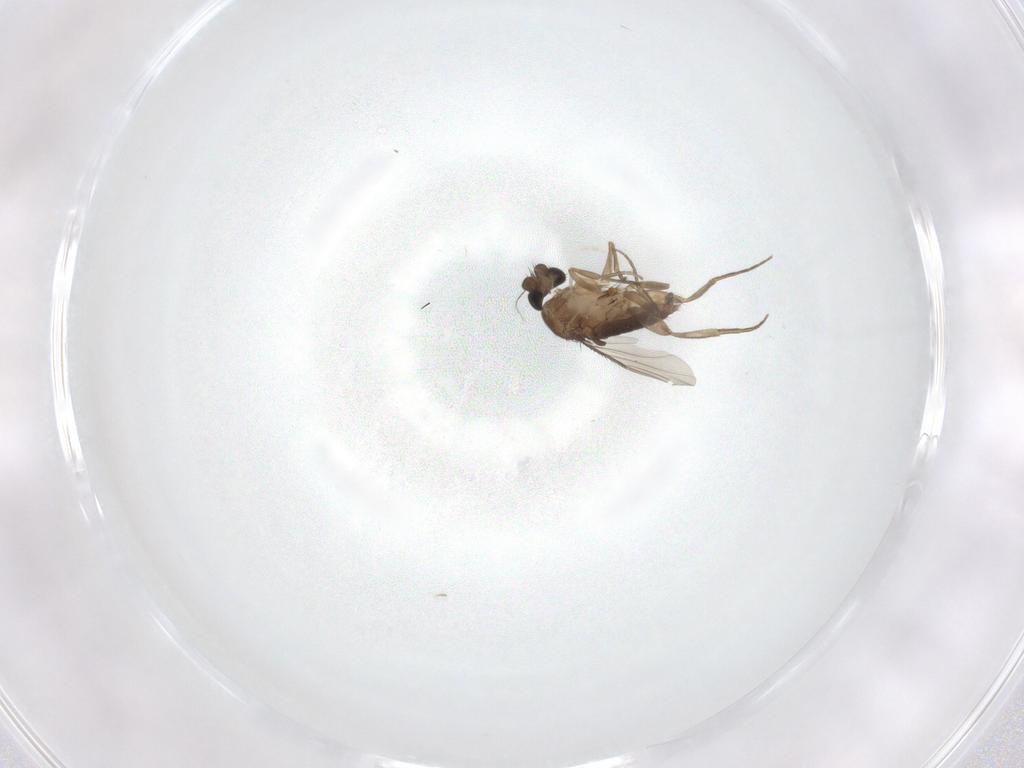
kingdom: Animalia
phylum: Arthropoda
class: Insecta
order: Diptera
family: Phoridae
